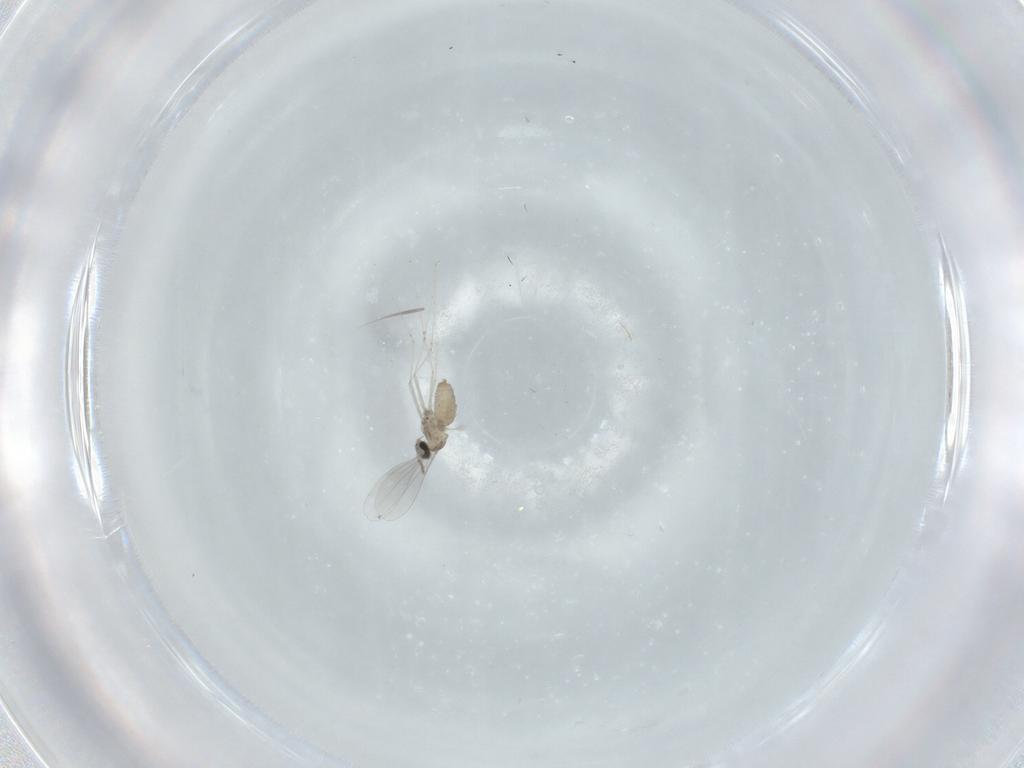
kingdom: Animalia
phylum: Arthropoda
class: Insecta
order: Diptera
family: Cecidomyiidae
